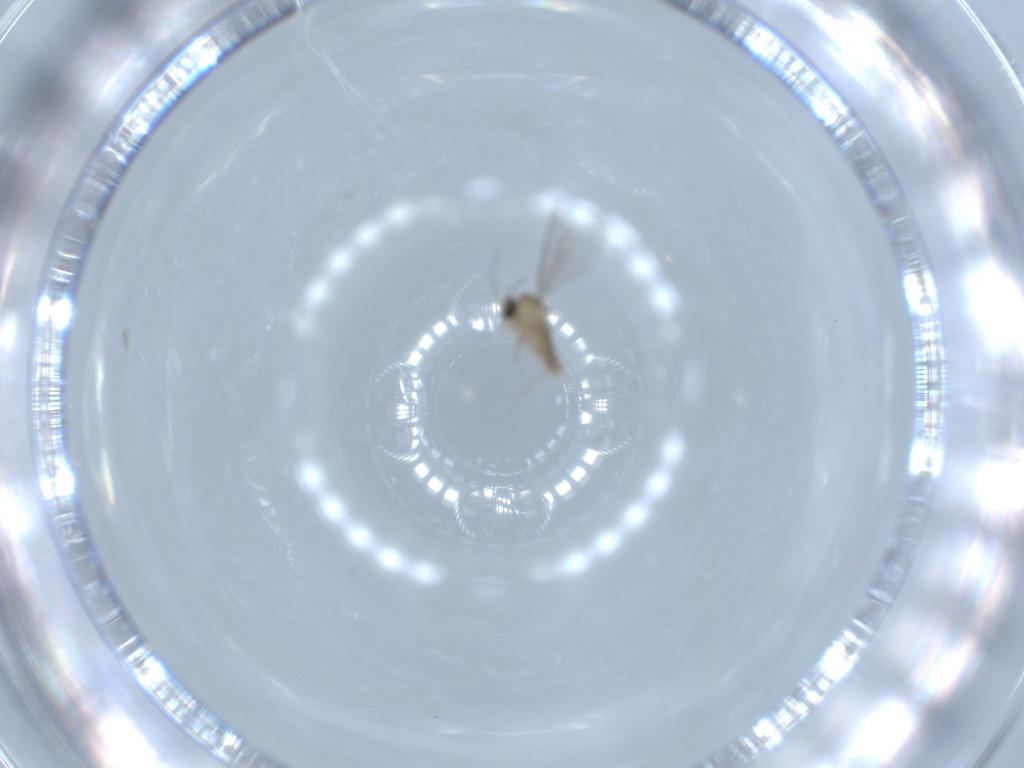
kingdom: Animalia
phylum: Arthropoda
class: Insecta
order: Diptera
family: Cecidomyiidae
